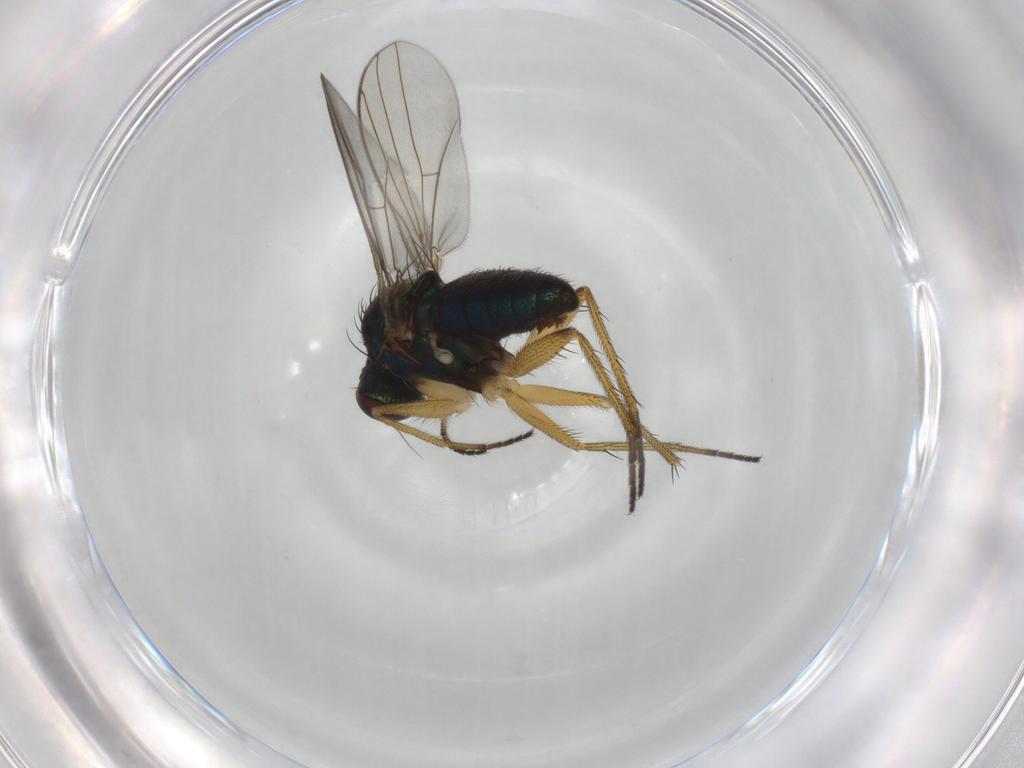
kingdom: Animalia
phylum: Arthropoda
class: Insecta
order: Diptera
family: Dolichopodidae
